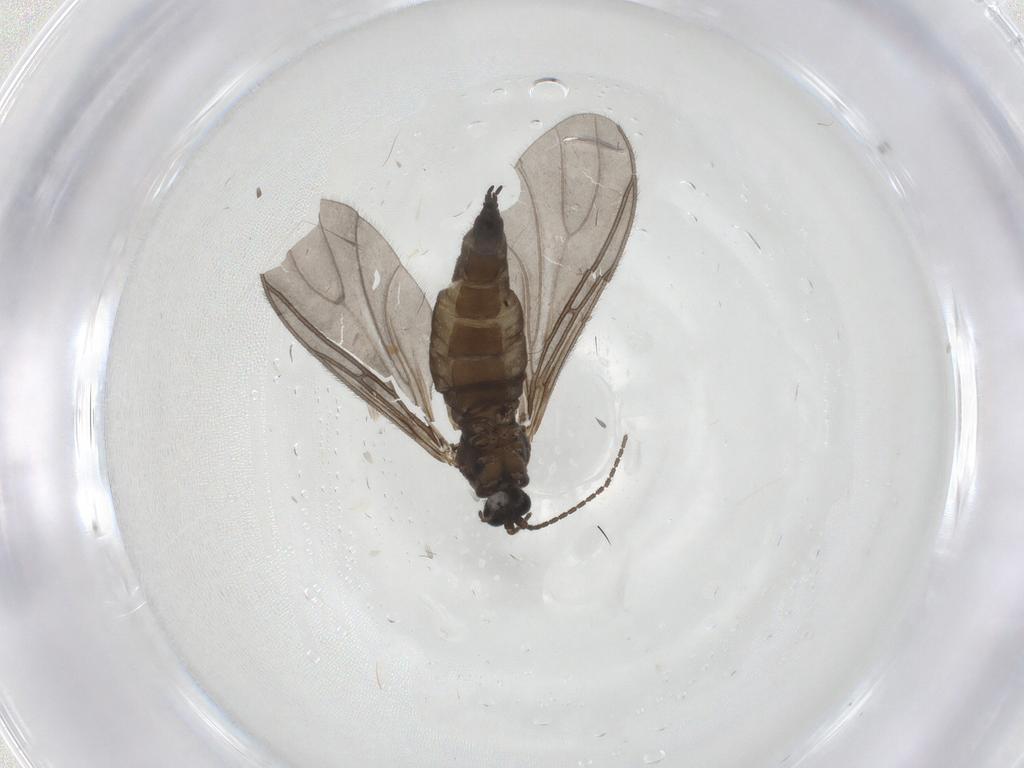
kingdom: Animalia
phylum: Arthropoda
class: Insecta
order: Diptera
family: Sciaridae
